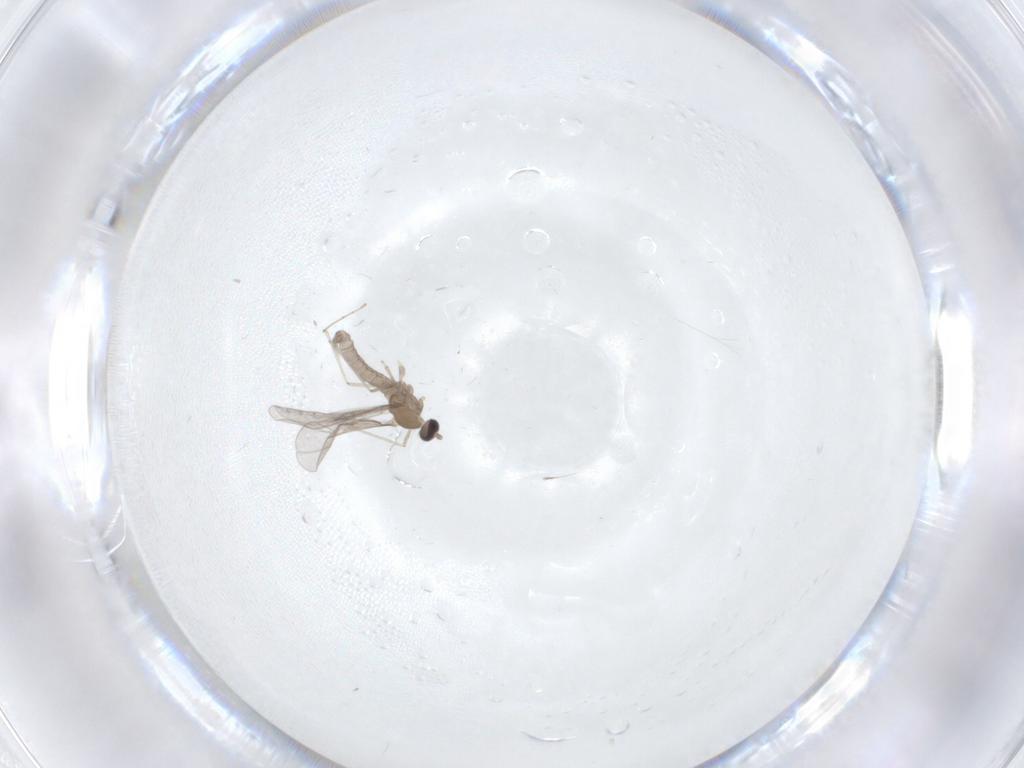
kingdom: Animalia
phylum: Arthropoda
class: Insecta
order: Diptera
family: Cecidomyiidae
